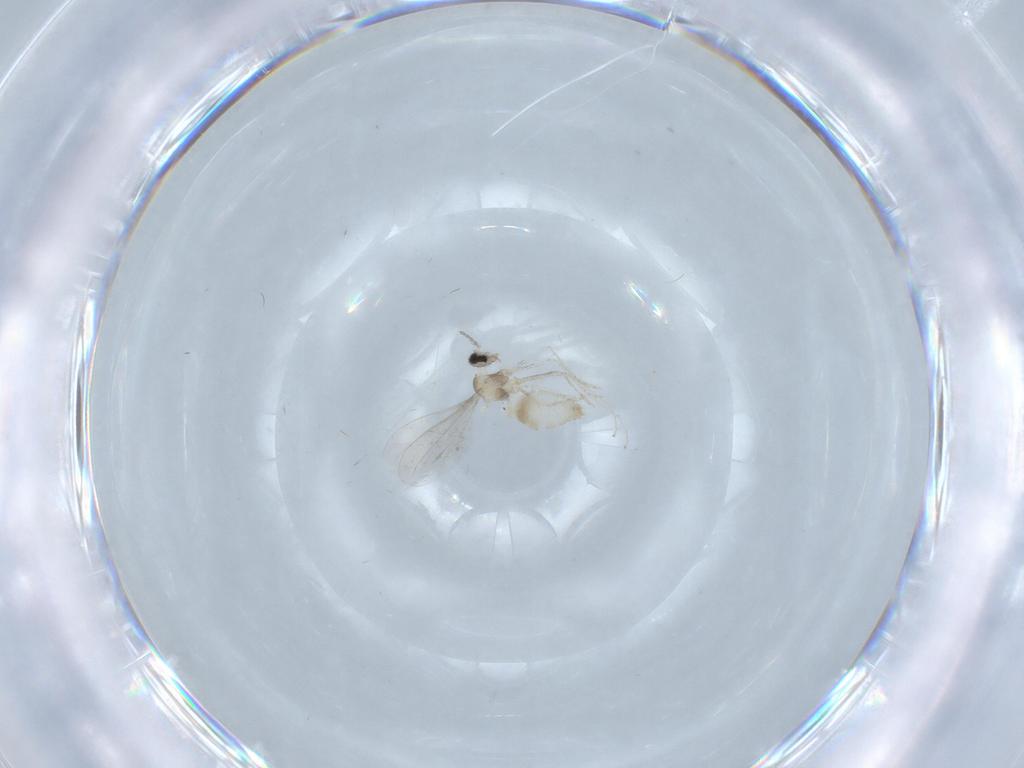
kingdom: Animalia
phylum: Arthropoda
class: Insecta
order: Diptera
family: Cecidomyiidae
